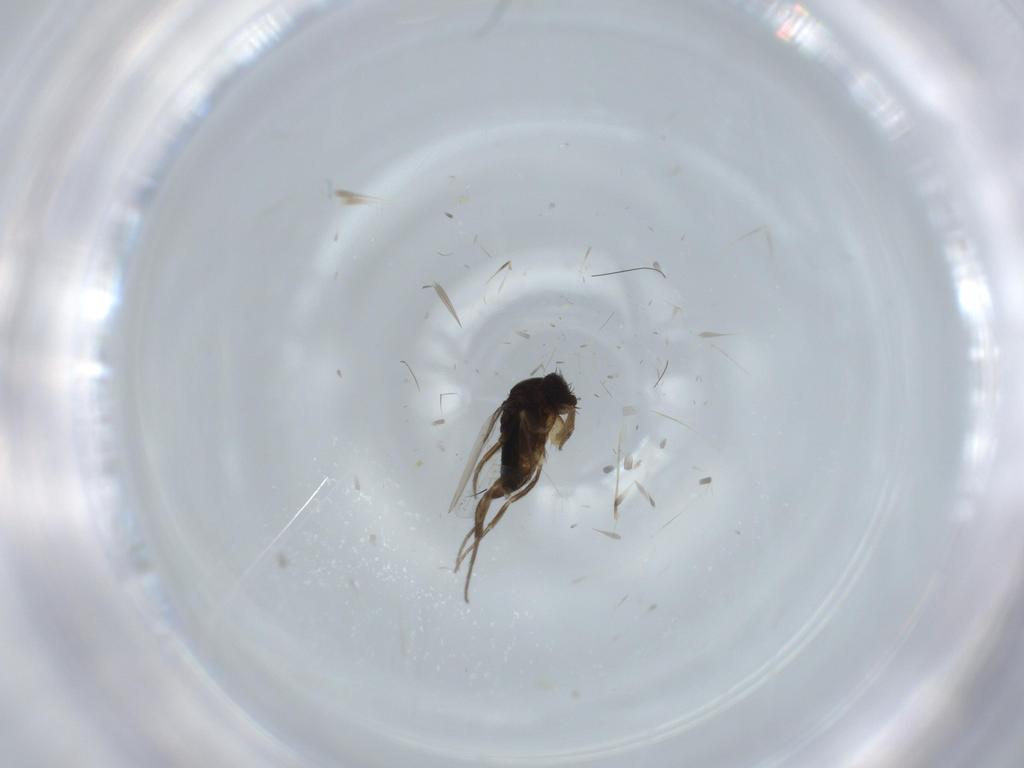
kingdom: Animalia
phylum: Arthropoda
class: Insecta
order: Diptera
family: Phoridae
